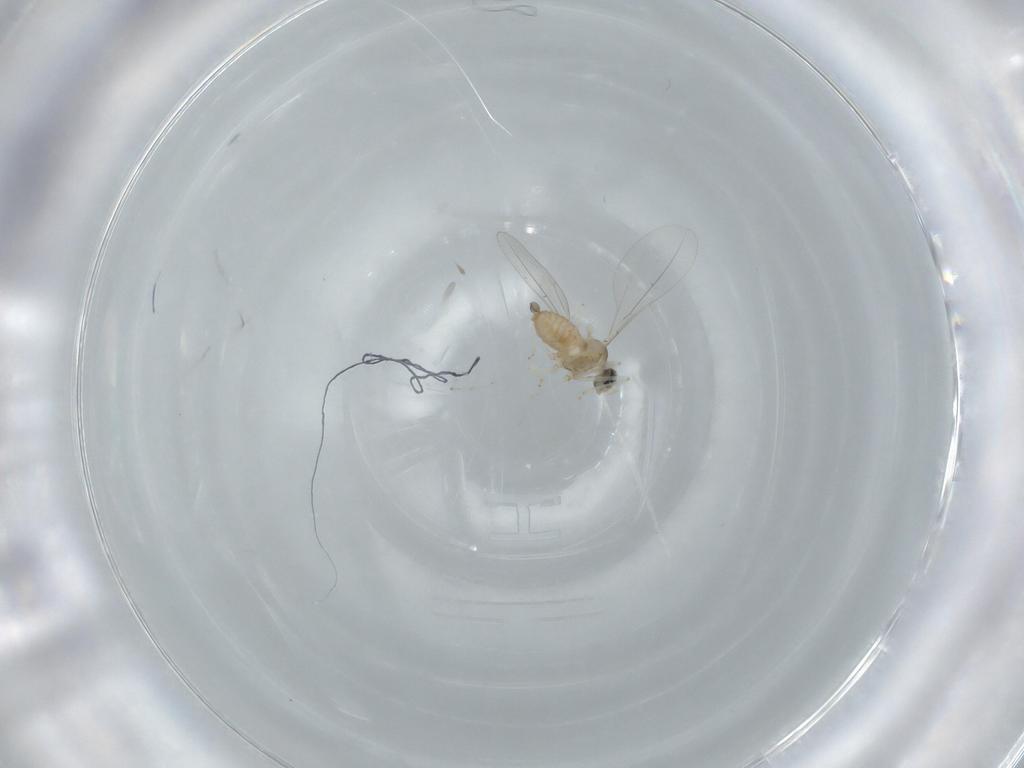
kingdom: Animalia
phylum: Arthropoda
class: Insecta
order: Diptera
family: Cecidomyiidae
